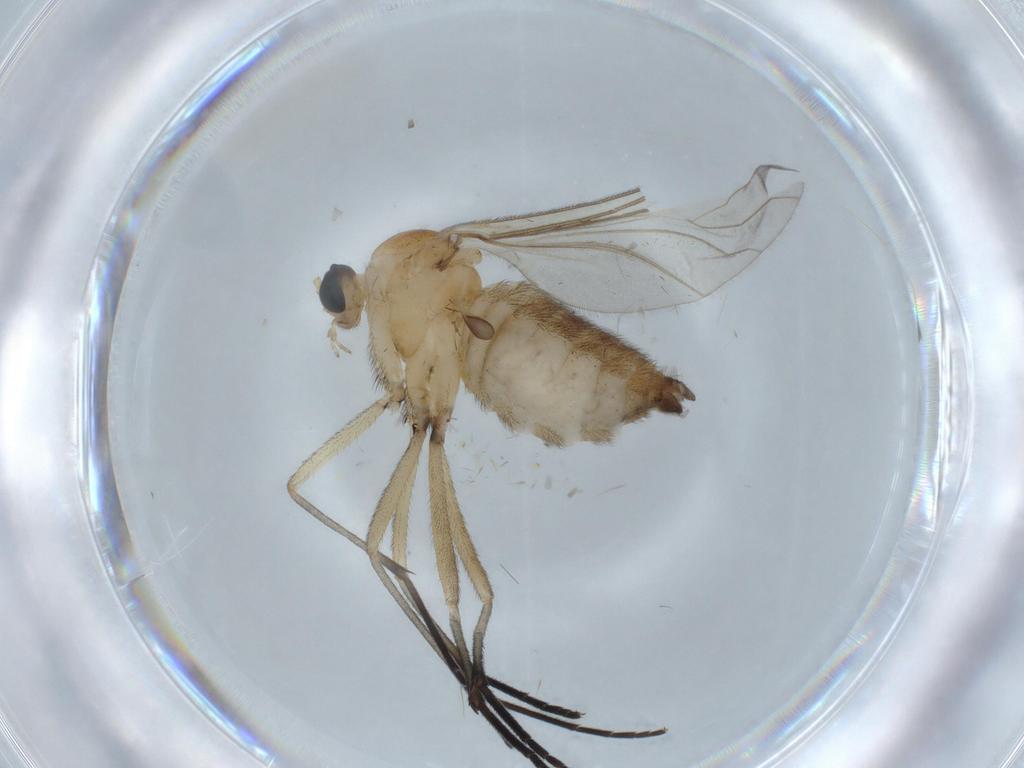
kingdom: Animalia
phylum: Arthropoda
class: Insecta
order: Diptera
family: Sciaridae
